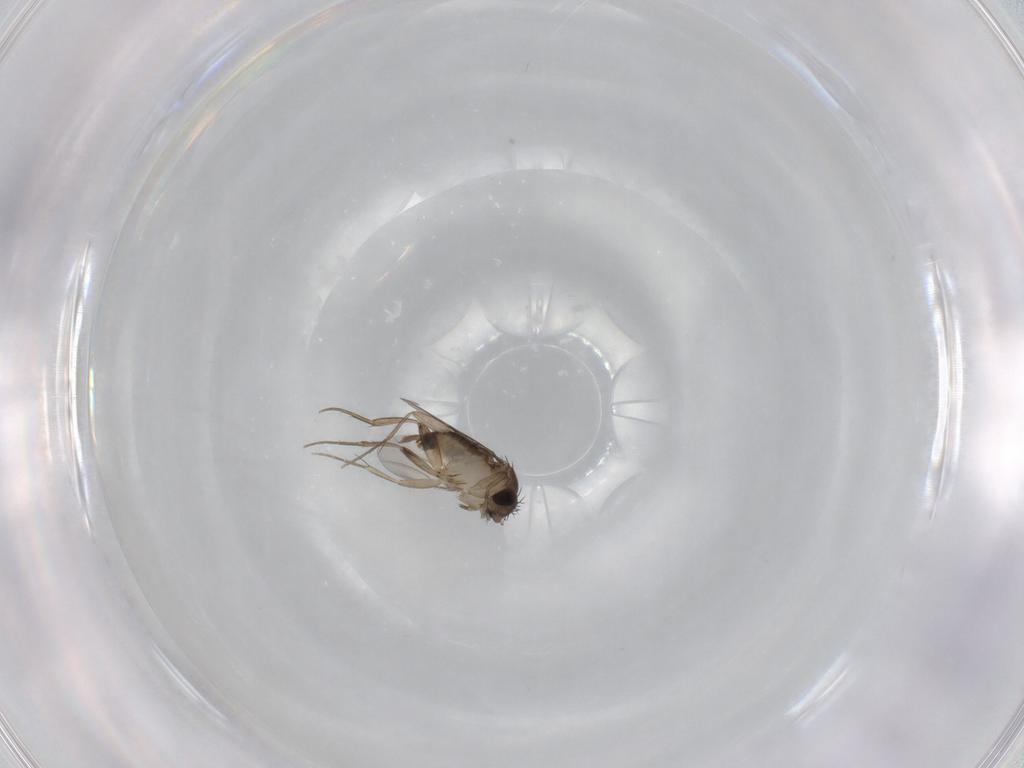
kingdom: Animalia
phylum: Arthropoda
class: Insecta
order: Diptera
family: Phoridae
